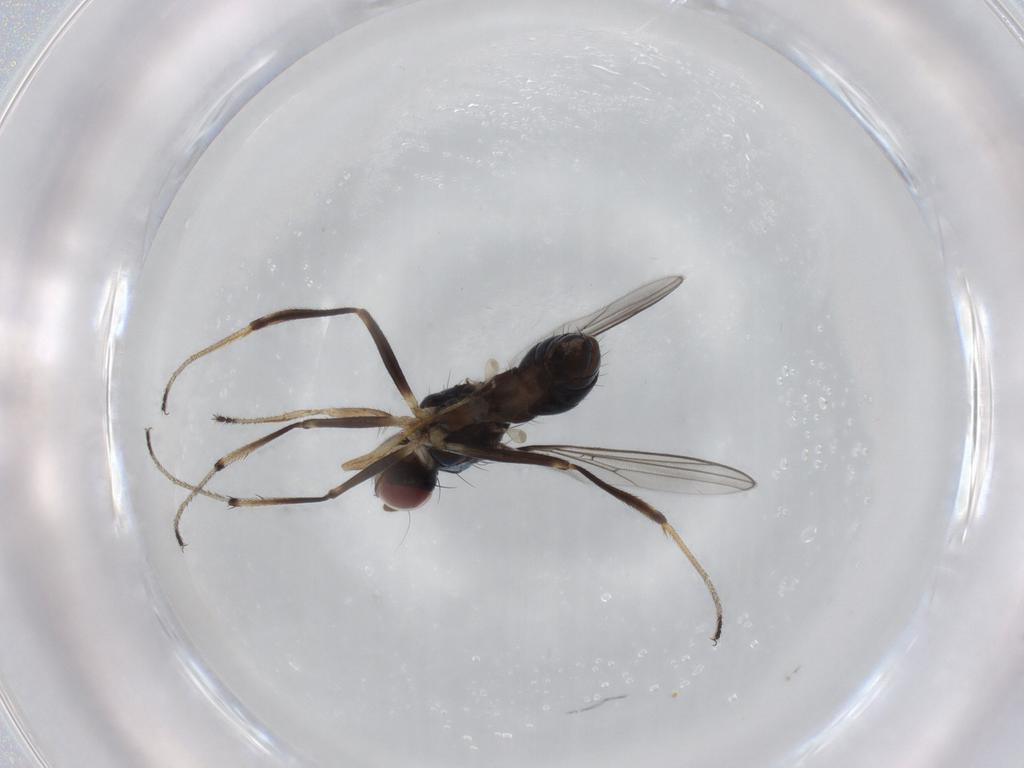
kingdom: Animalia
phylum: Arthropoda
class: Insecta
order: Diptera
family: Sepsidae
